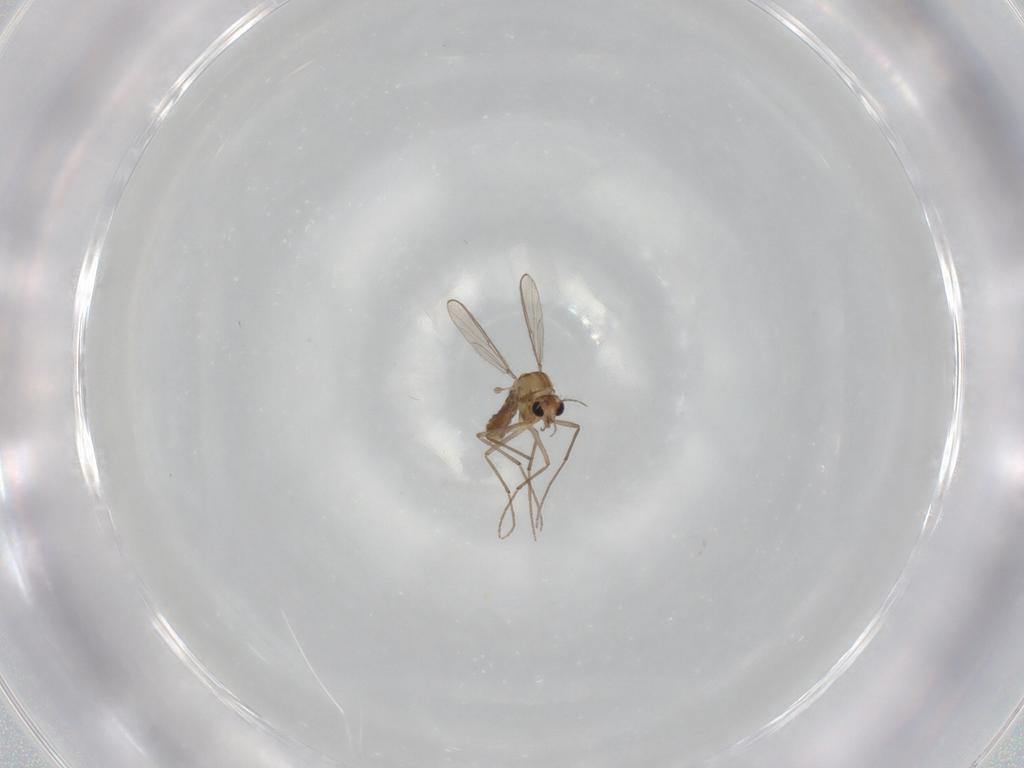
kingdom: Animalia
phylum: Arthropoda
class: Insecta
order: Diptera
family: Chironomidae
